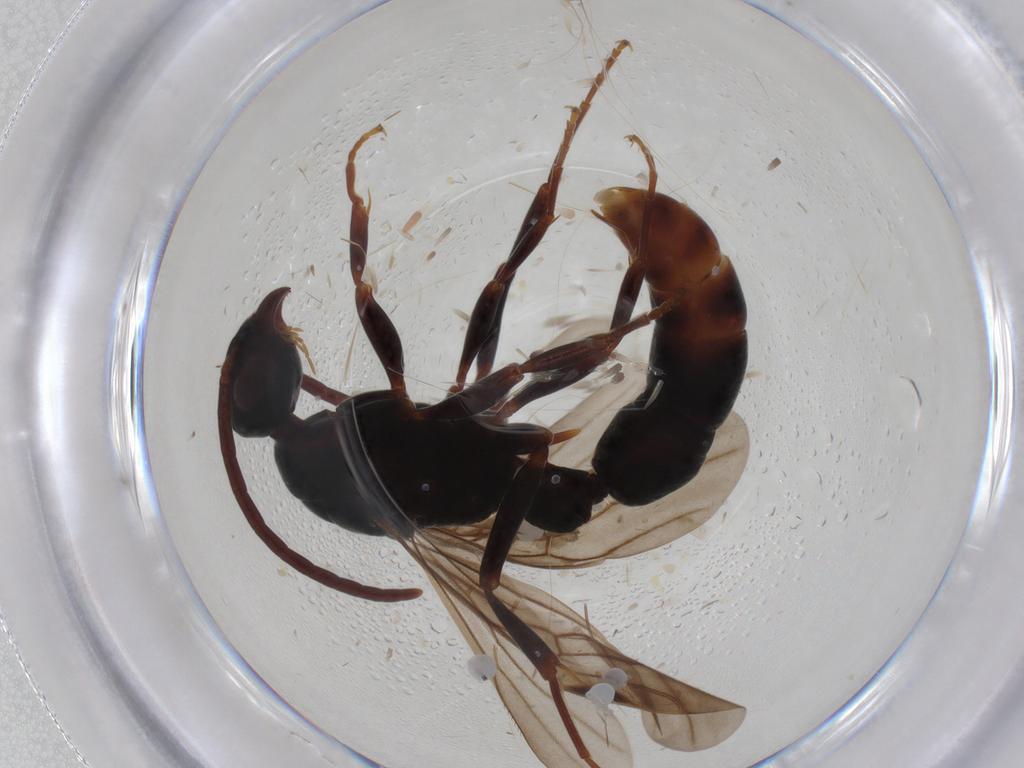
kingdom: Animalia
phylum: Arthropoda
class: Insecta
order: Hymenoptera
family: Formicidae
